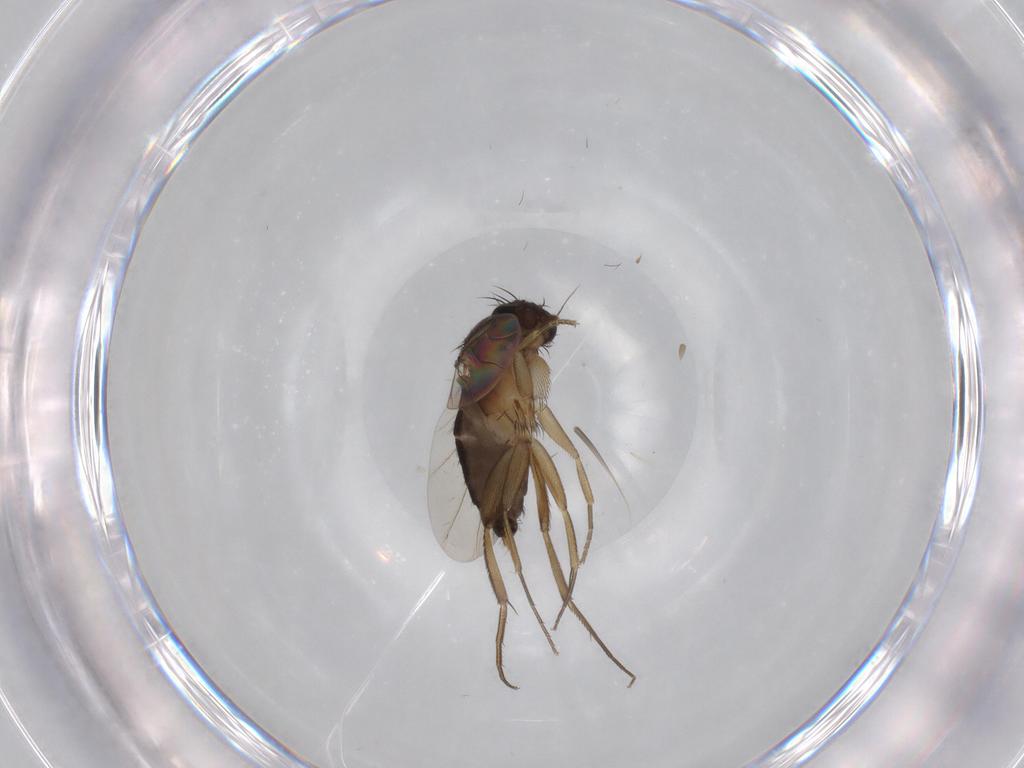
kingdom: Animalia
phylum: Arthropoda
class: Insecta
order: Diptera
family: Phoridae
